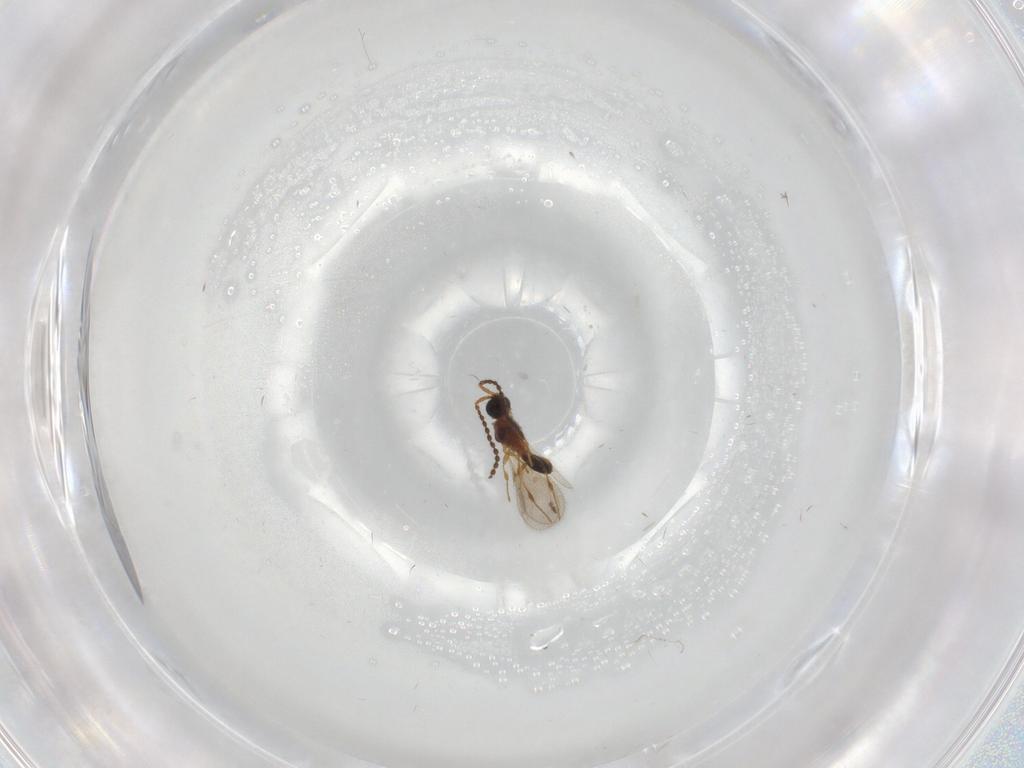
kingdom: Animalia
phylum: Arthropoda
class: Insecta
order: Hymenoptera
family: Diapriidae
